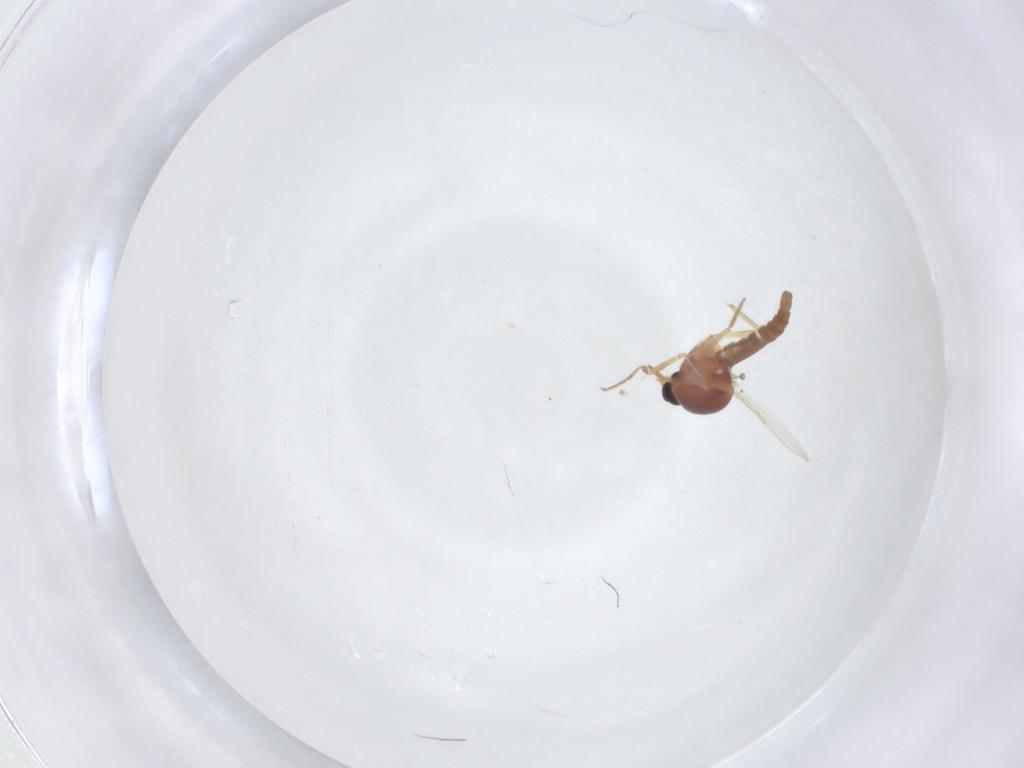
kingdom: Animalia
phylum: Arthropoda
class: Insecta
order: Diptera
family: Ceratopogonidae
